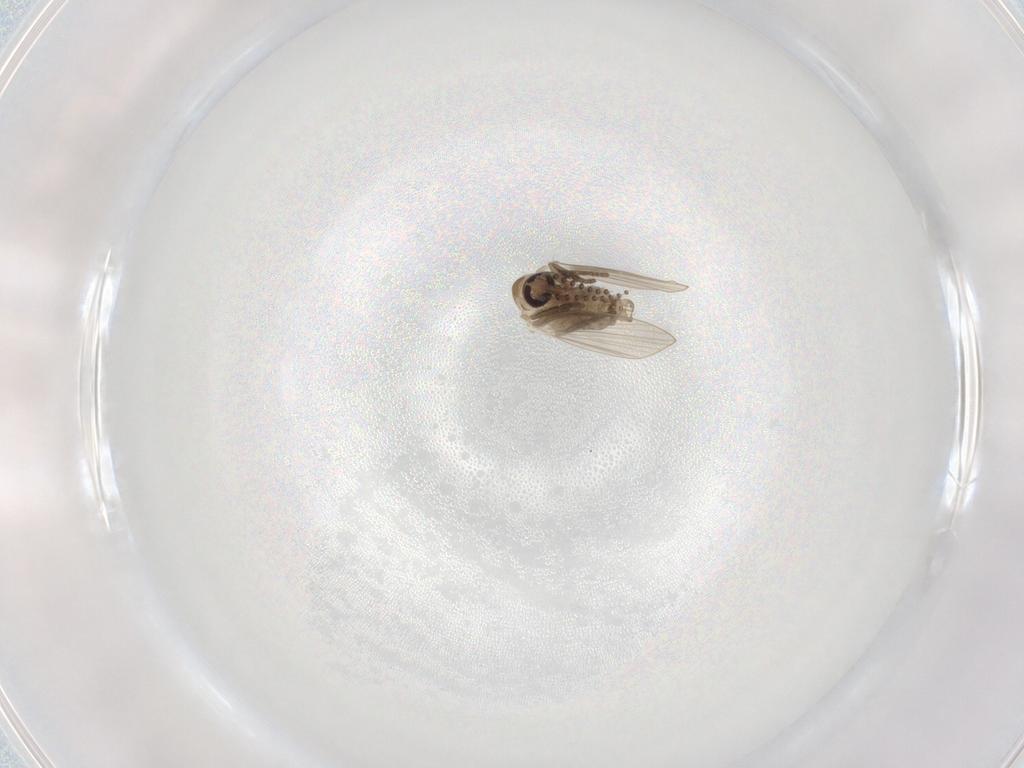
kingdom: Animalia
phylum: Arthropoda
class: Insecta
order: Diptera
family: Psychodidae
